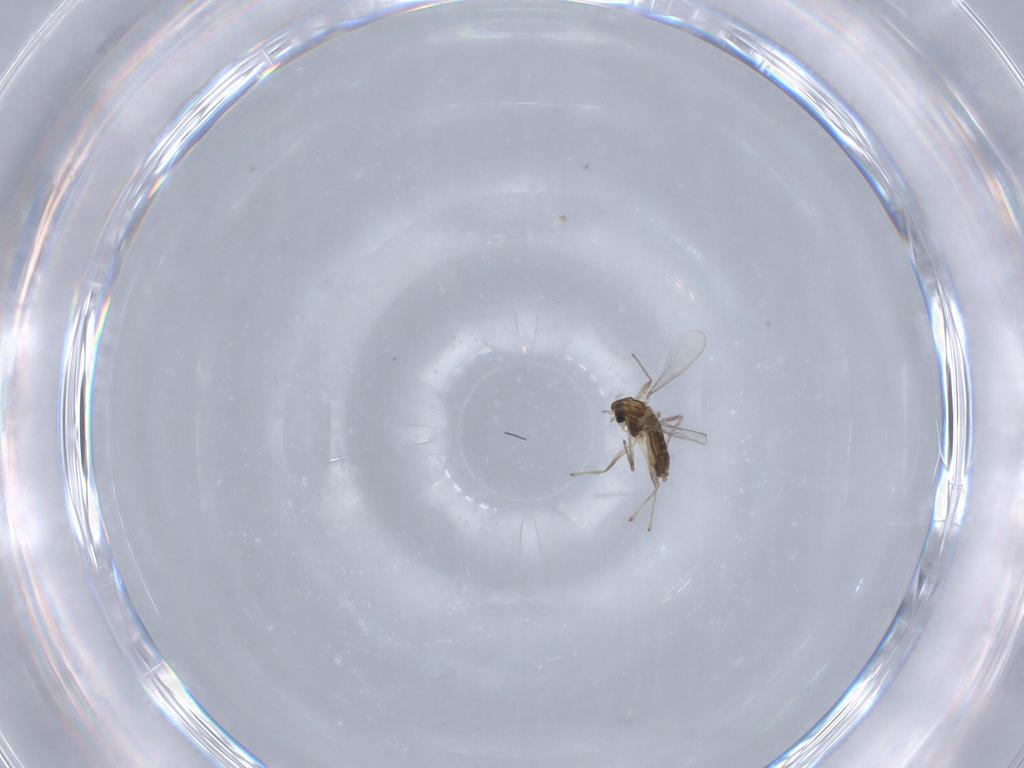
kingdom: Animalia
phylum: Arthropoda
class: Insecta
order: Diptera
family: Chironomidae
